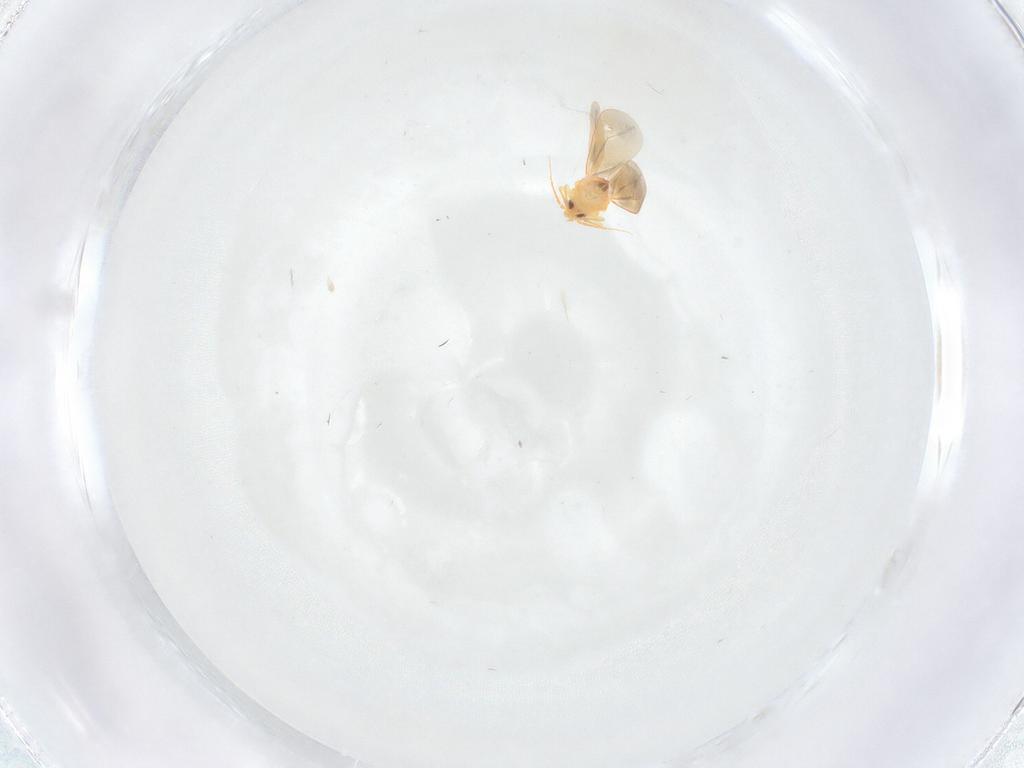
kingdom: Animalia
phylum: Arthropoda
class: Insecta
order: Hemiptera
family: Aleyrodidae
